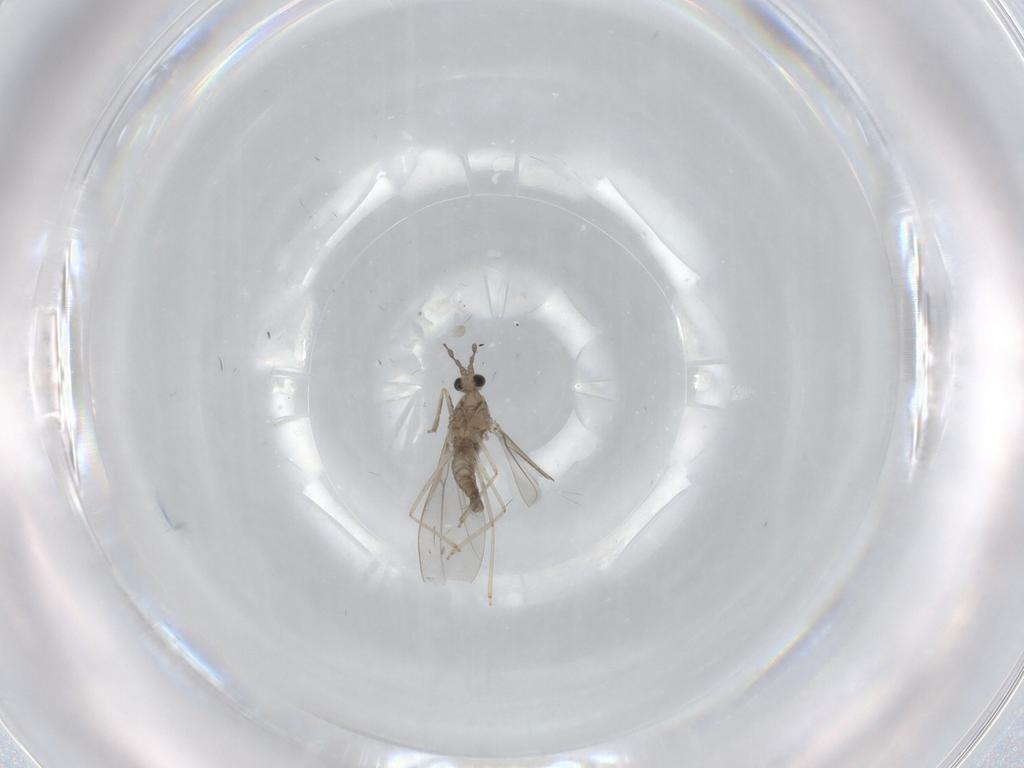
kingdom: Animalia
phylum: Arthropoda
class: Insecta
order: Diptera
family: Cecidomyiidae
